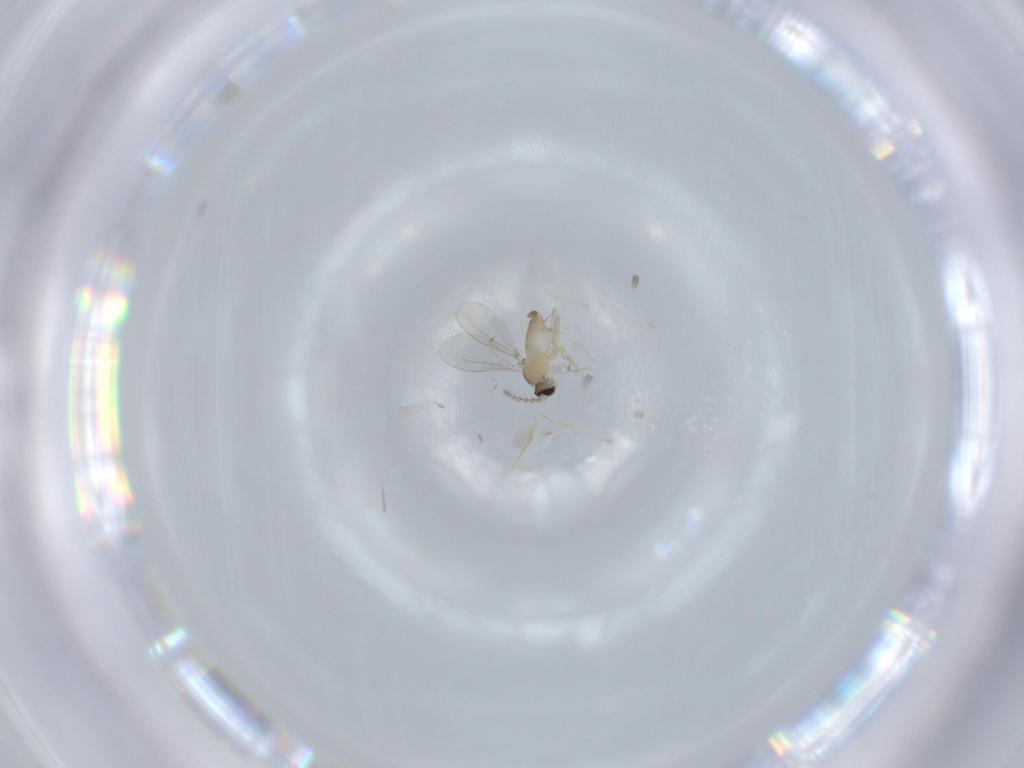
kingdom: Animalia
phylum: Arthropoda
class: Insecta
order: Diptera
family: Cecidomyiidae
